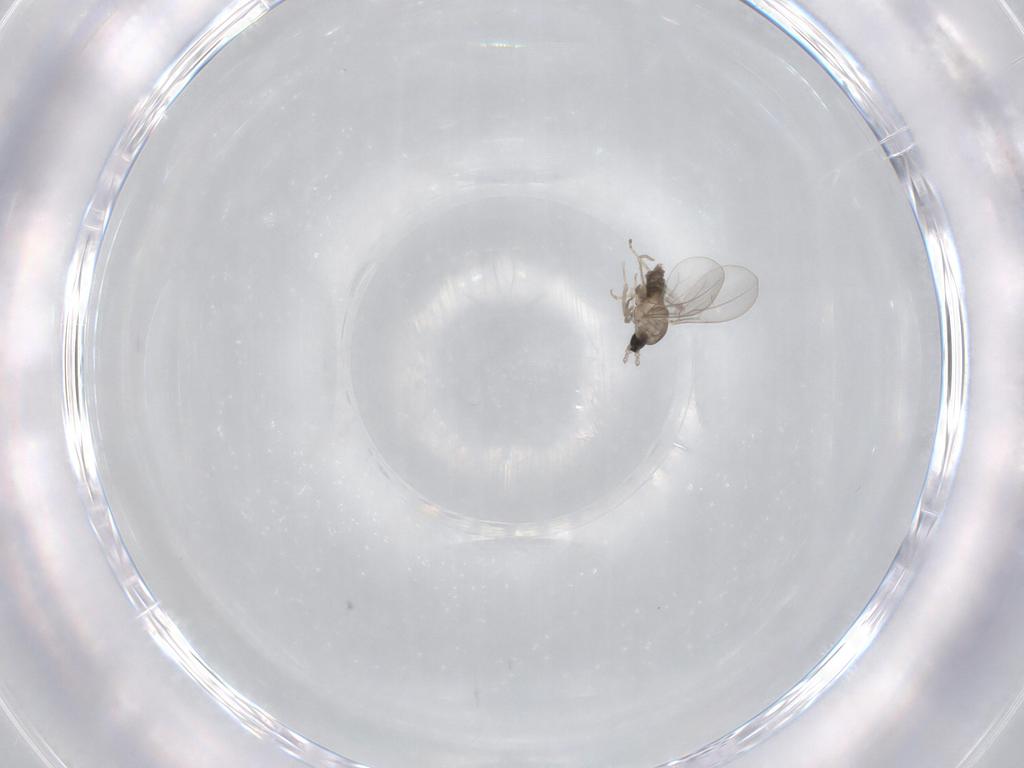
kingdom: Animalia
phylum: Arthropoda
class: Insecta
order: Diptera
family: Cecidomyiidae
